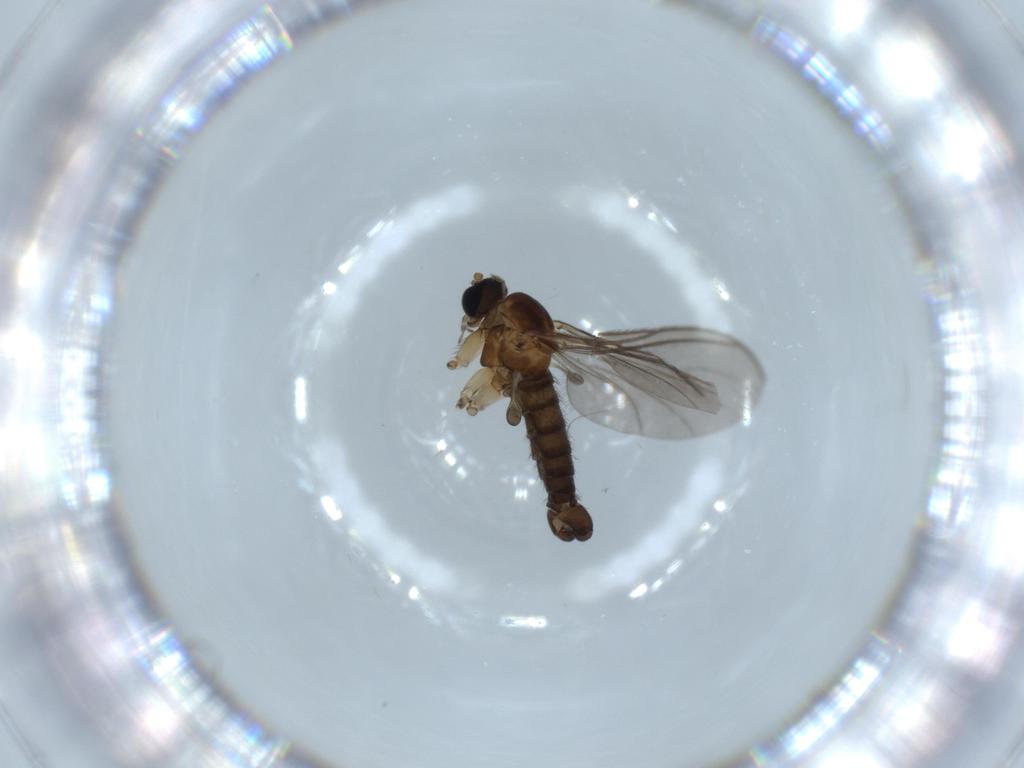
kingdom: Animalia
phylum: Arthropoda
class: Insecta
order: Diptera
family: Sciaridae
